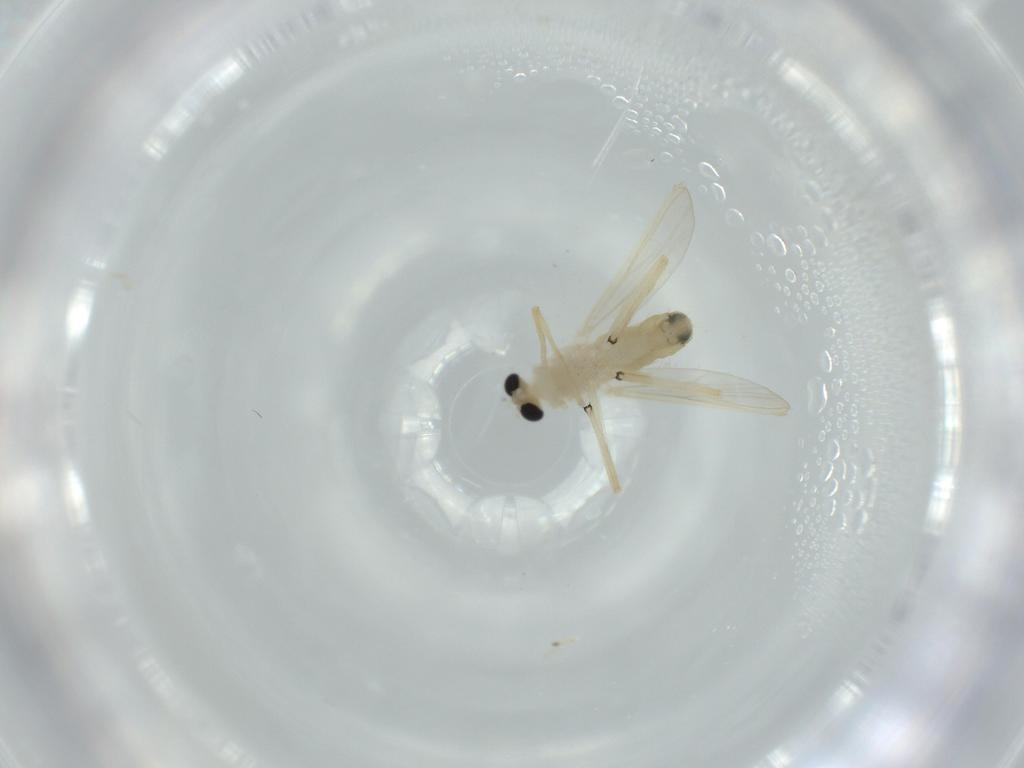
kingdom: Animalia
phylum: Arthropoda
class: Insecta
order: Diptera
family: Chironomidae
